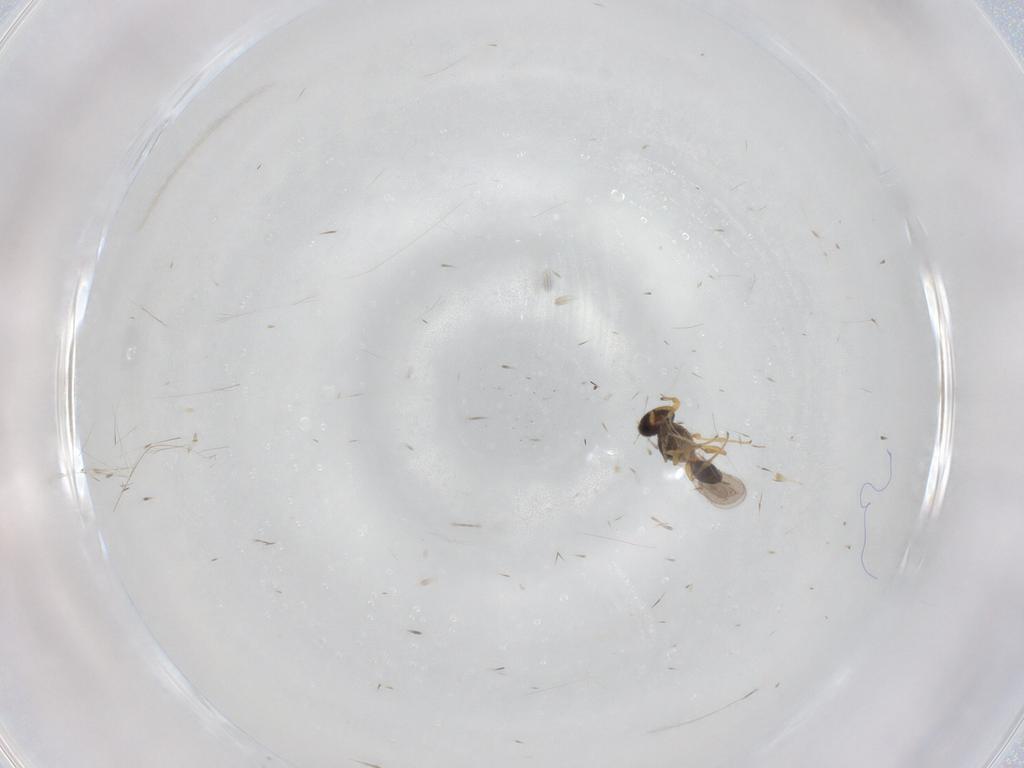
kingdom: Animalia
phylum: Arthropoda
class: Insecta
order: Hymenoptera
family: Platygastridae
